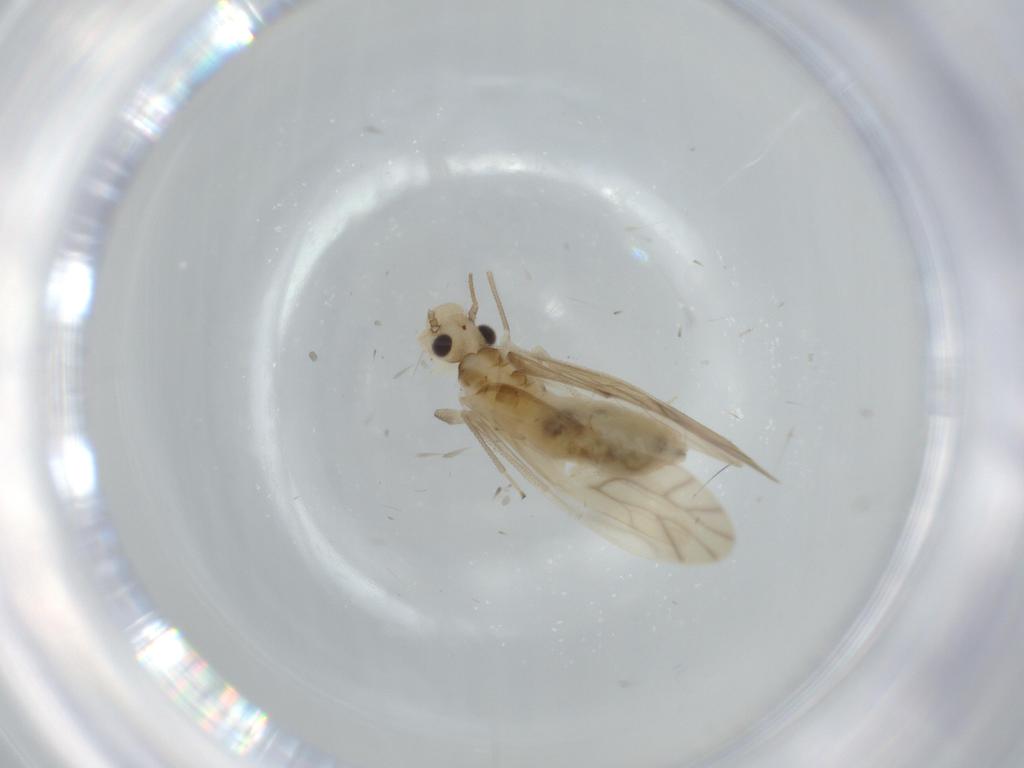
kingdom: Animalia
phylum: Arthropoda
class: Insecta
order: Psocodea
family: Caeciliusidae
